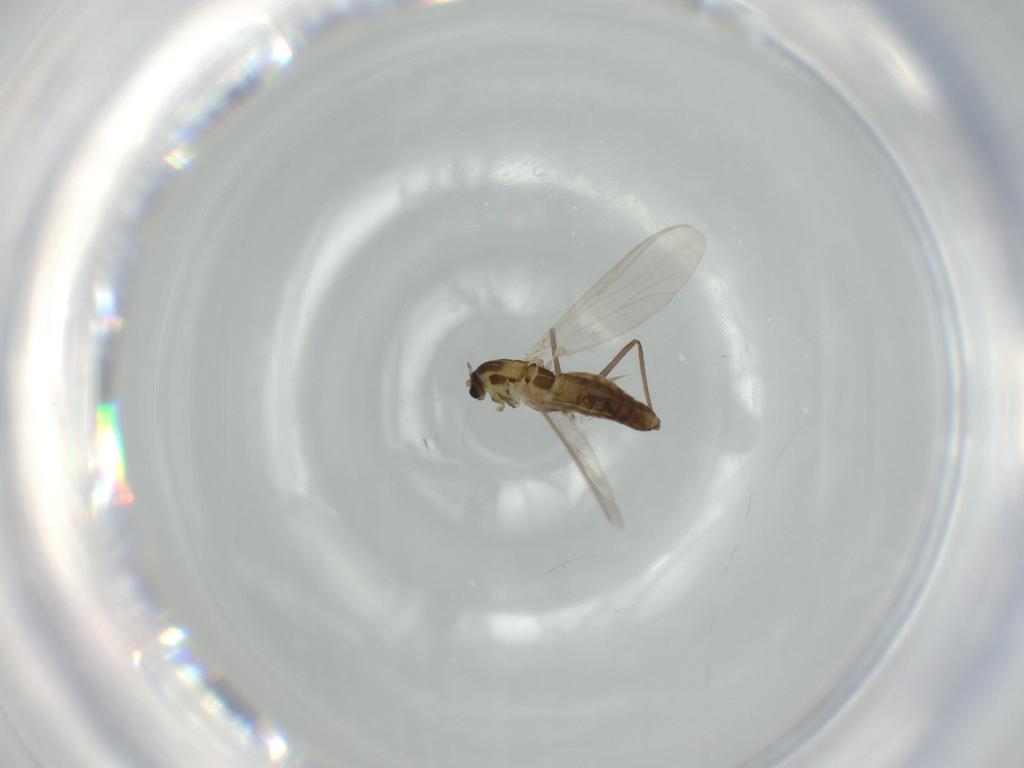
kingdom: Animalia
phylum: Arthropoda
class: Insecta
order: Diptera
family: Chironomidae
